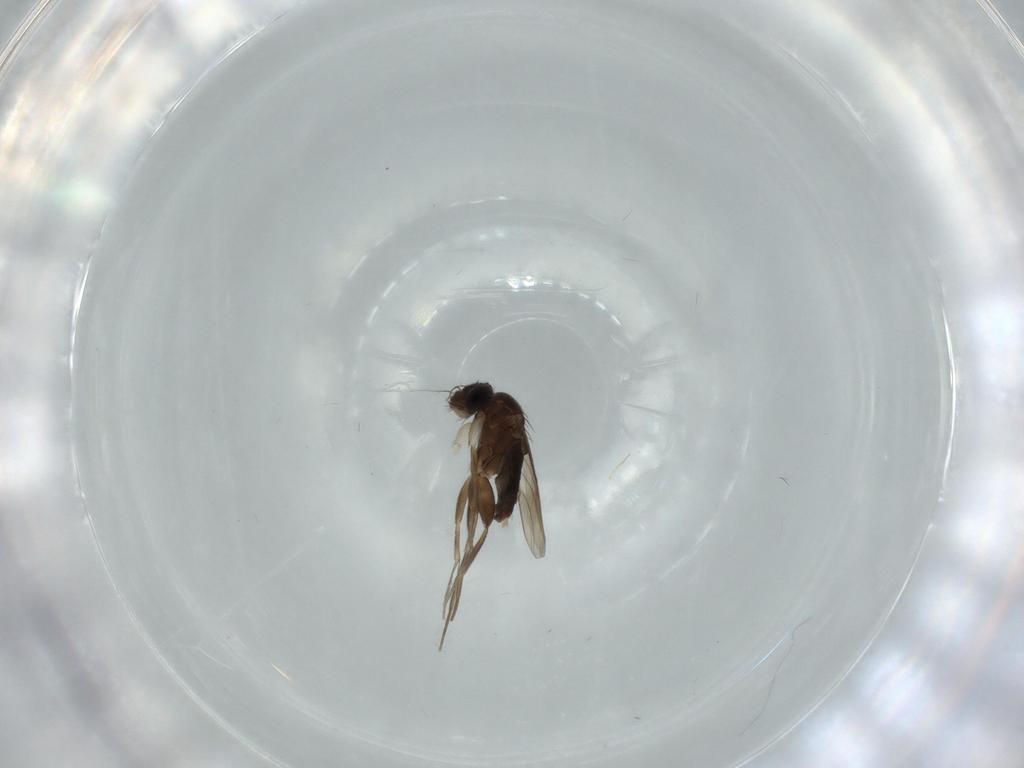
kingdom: Animalia
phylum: Arthropoda
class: Insecta
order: Diptera
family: Phoridae
